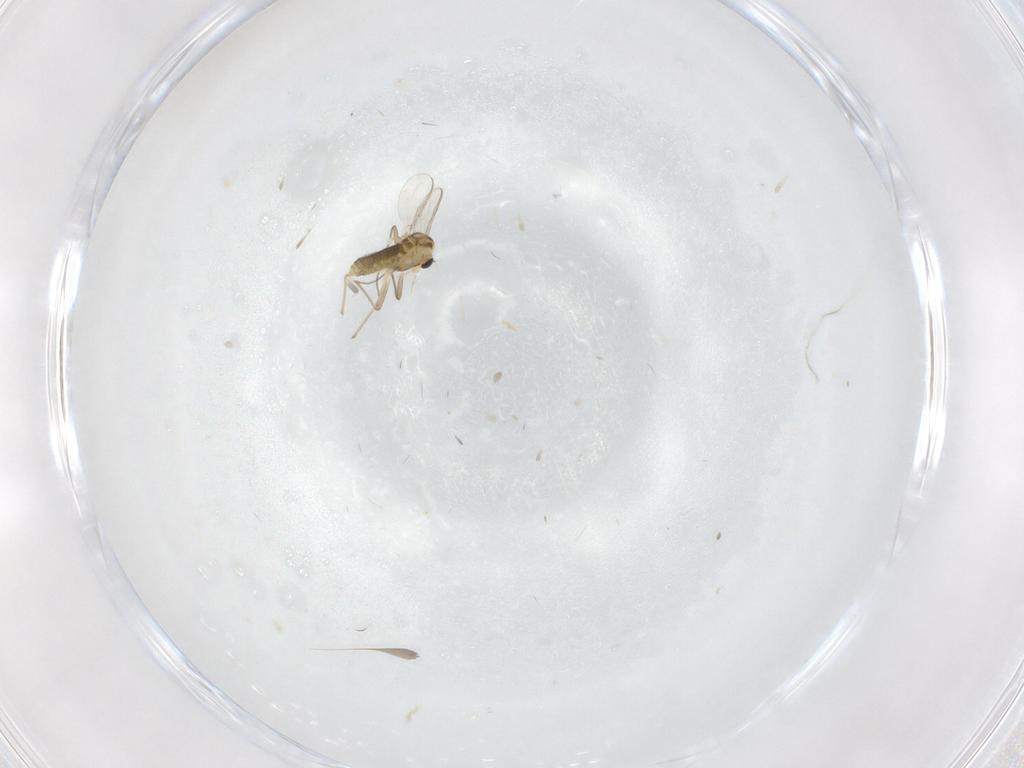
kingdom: Animalia
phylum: Arthropoda
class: Insecta
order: Diptera
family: Chironomidae
